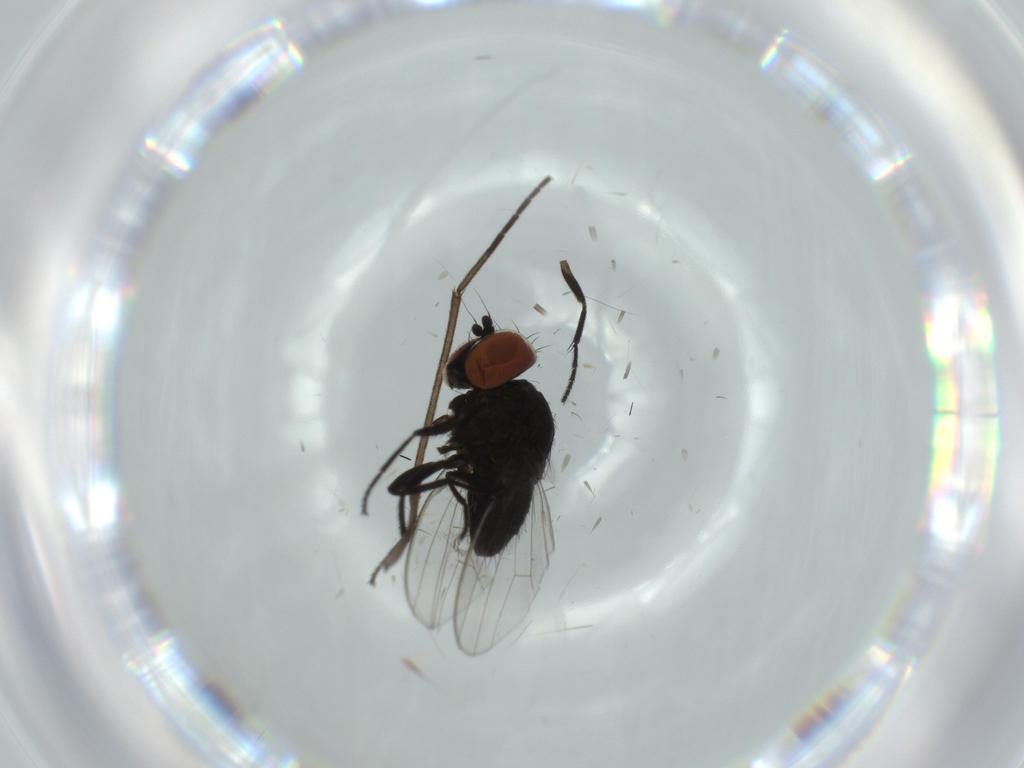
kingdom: Animalia
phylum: Arthropoda
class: Insecta
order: Diptera
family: Milichiidae
